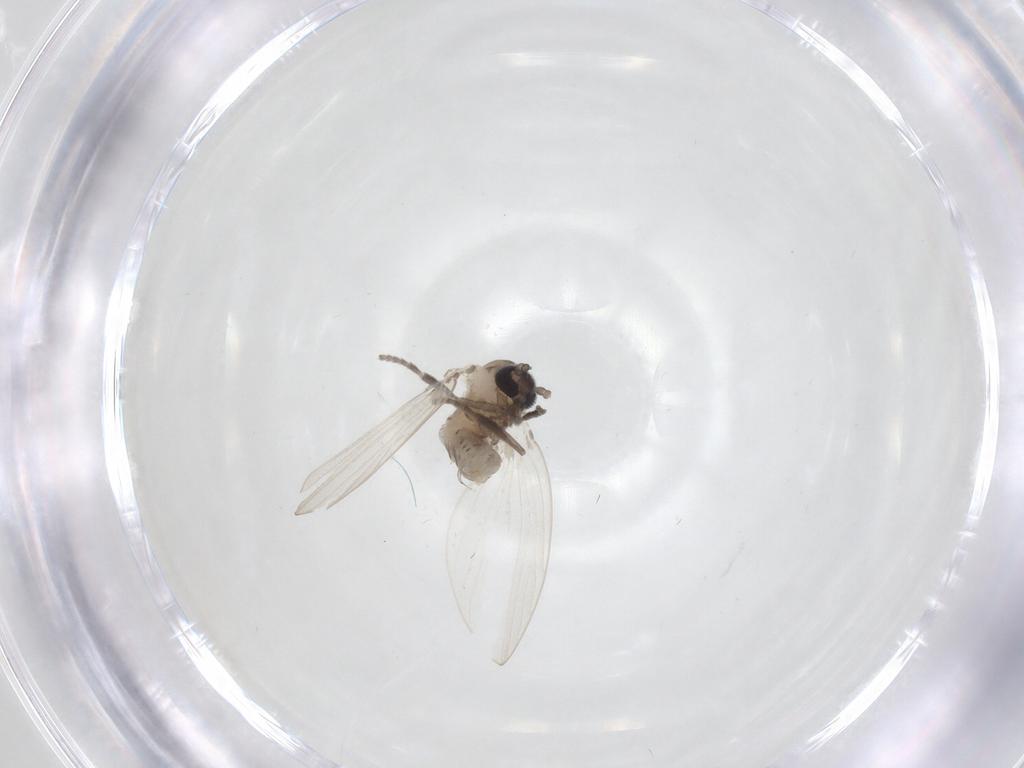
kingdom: Animalia
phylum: Arthropoda
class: Insecta
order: Diptera
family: Psychodidae
